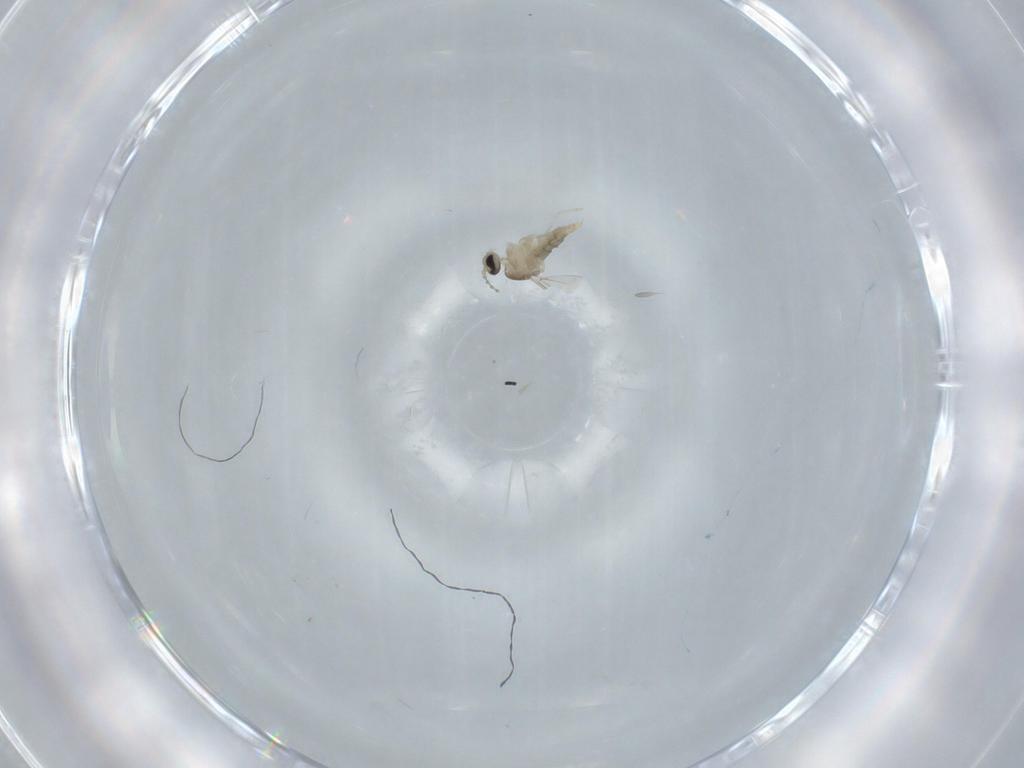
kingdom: Animalia
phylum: Arthropoda
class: Insecta
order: Diptera
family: Cecidomyiidae
